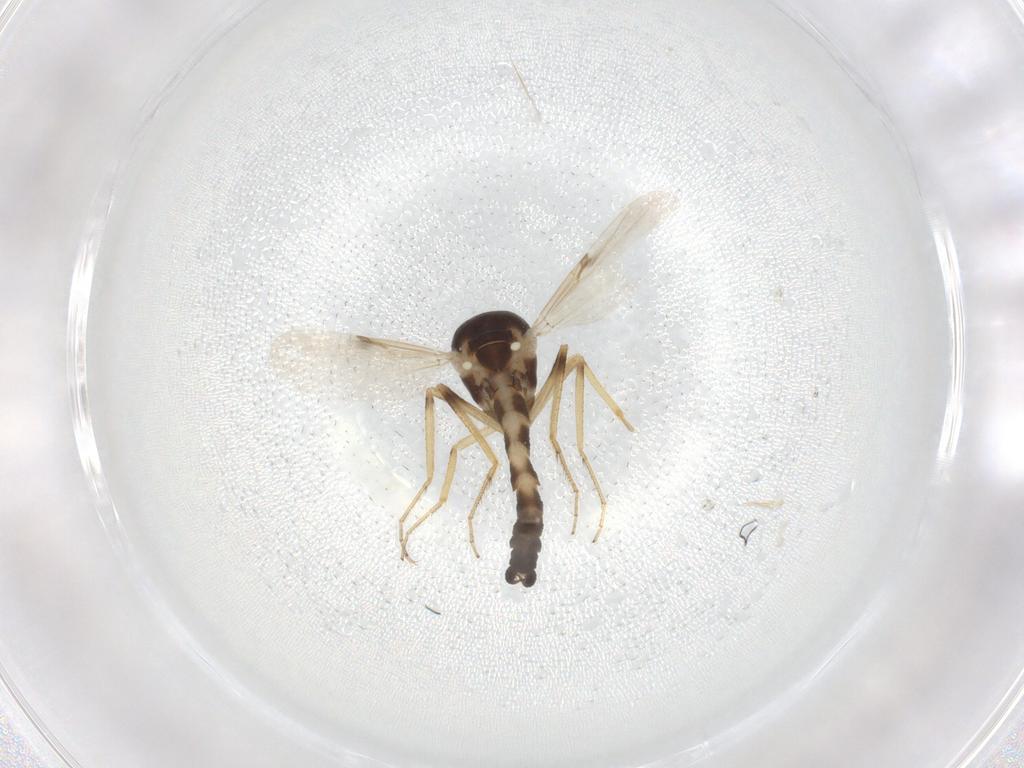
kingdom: Animalia
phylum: Arthropoda
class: Insecta
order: Diptera
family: Ceratopogonidae
